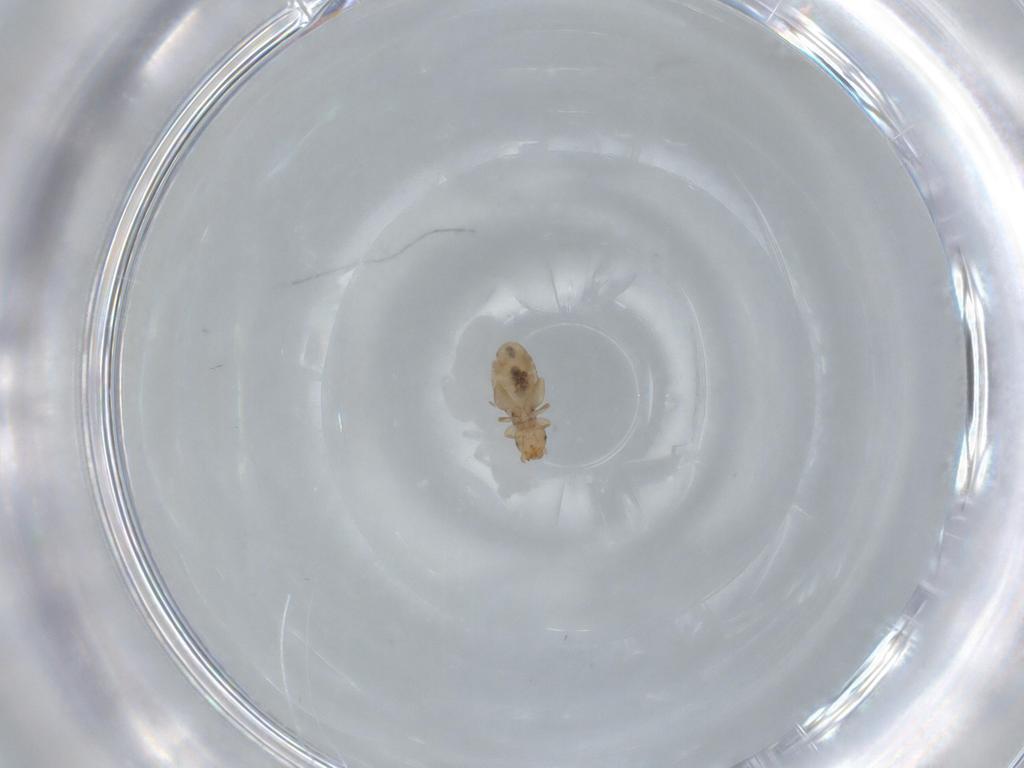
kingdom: Animalia
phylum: Arthropoda
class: Insecta
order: Psocodea
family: Liposcelididae
